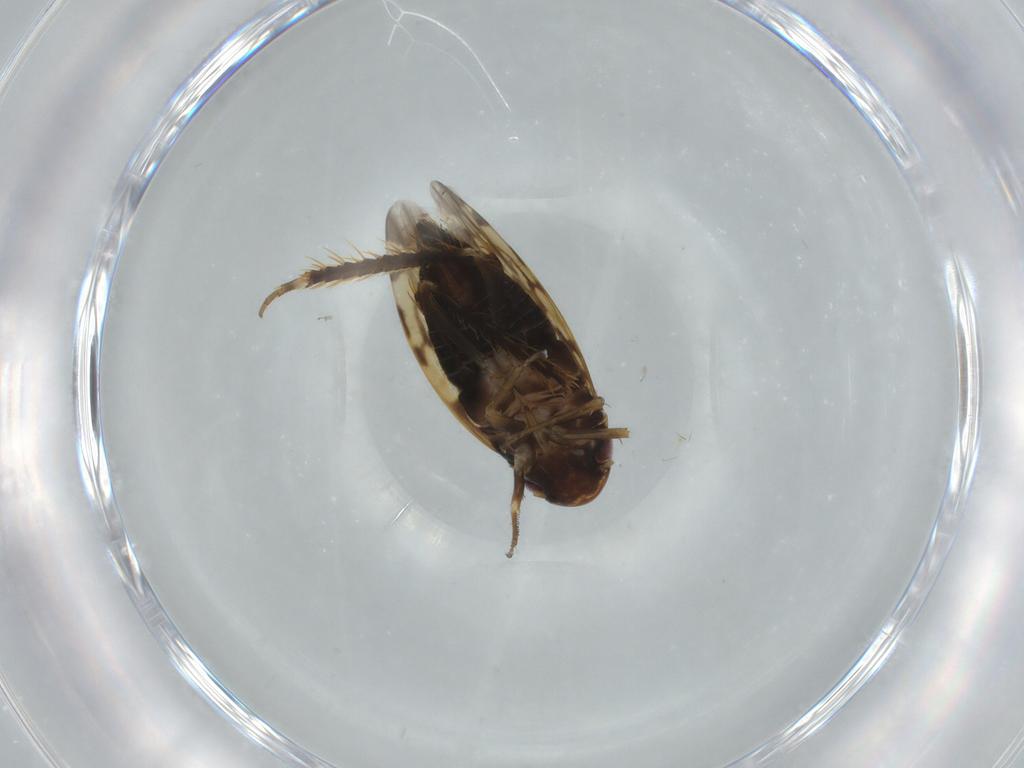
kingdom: Animalia
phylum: Arthropoda
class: Insecta
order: Hemiptera
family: Cicadellidae
